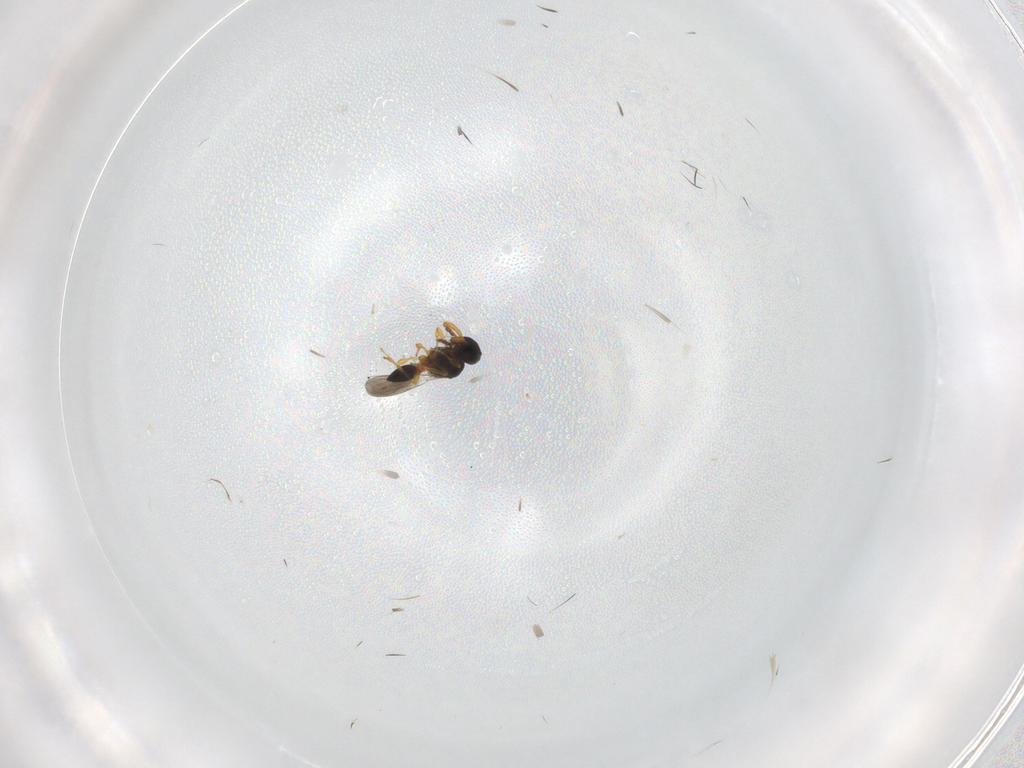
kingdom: Animalia
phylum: Arthropoda
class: Insecta
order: Hymenoptera
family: Platygastridae
